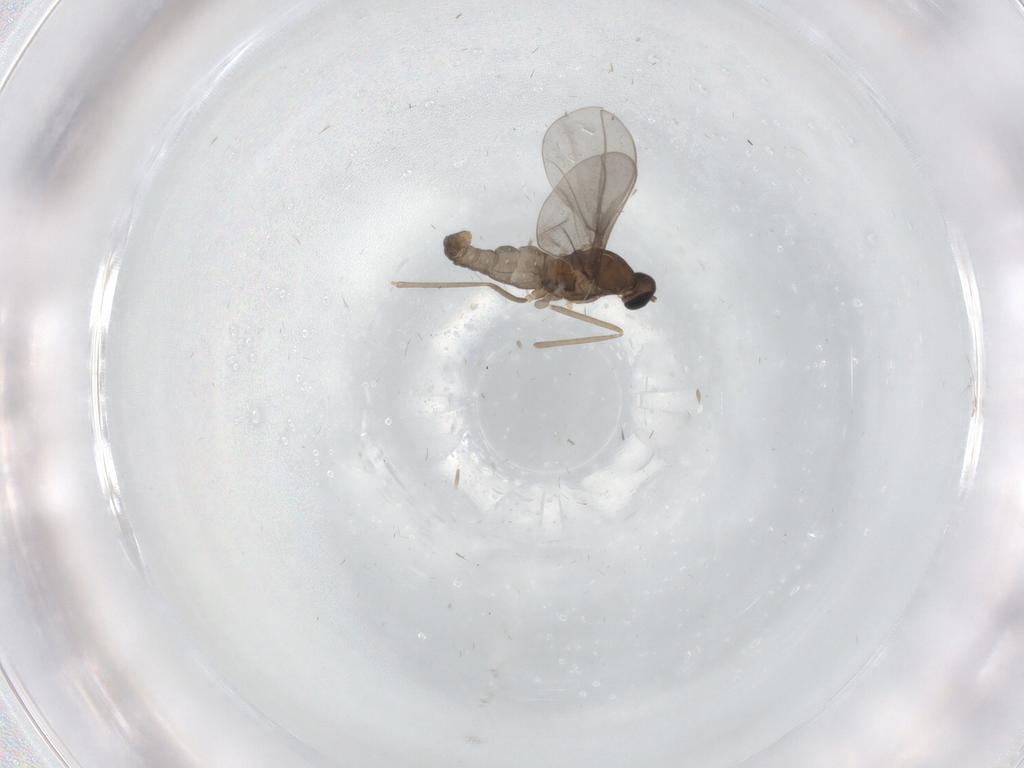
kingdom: Animalia
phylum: Arthropoda
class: Insecta
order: Diptera
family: Cecidomyiidae
